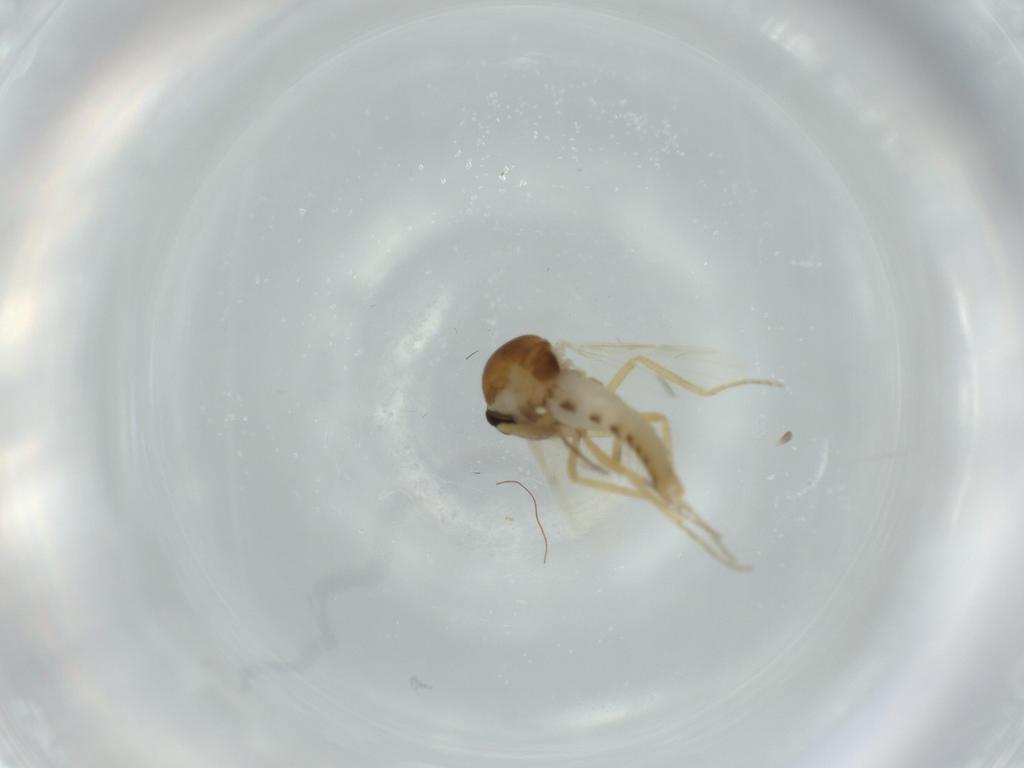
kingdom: Animalia
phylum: Arthropoda
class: Insecta
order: Diptera
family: Ceratopogonidae
